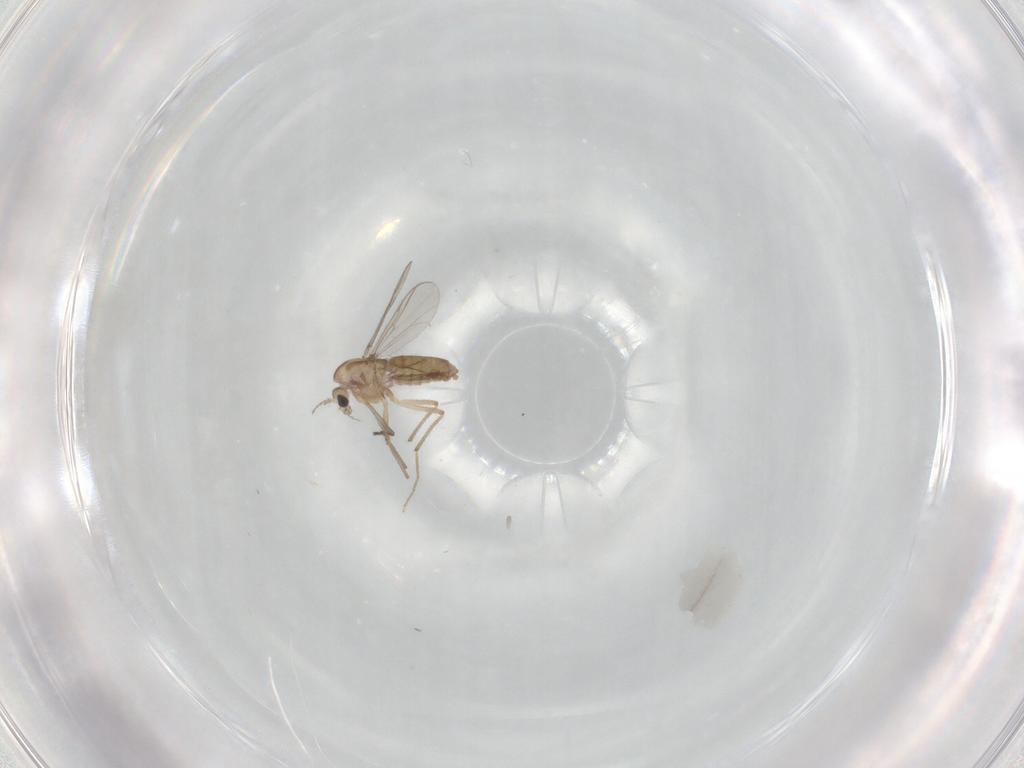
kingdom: Animalia
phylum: Arthropoda
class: Insecta
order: Diptera
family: Chironomidae
